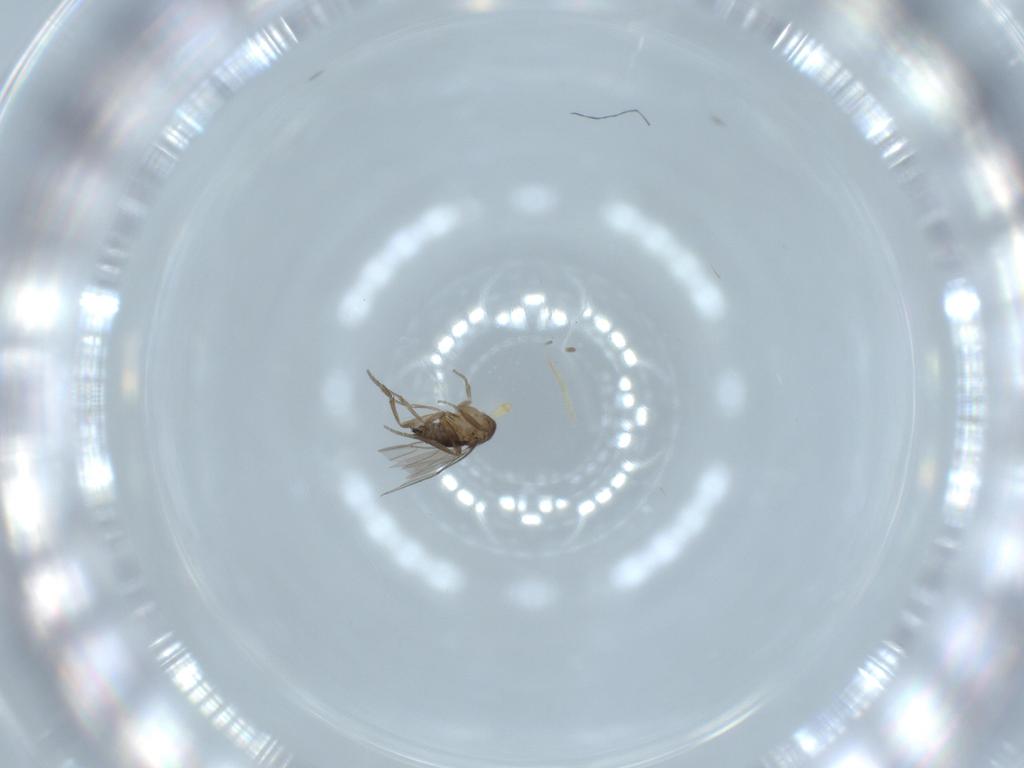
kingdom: Animalia
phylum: Arthropoda
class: Insecta
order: Diptera
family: Phoridae
